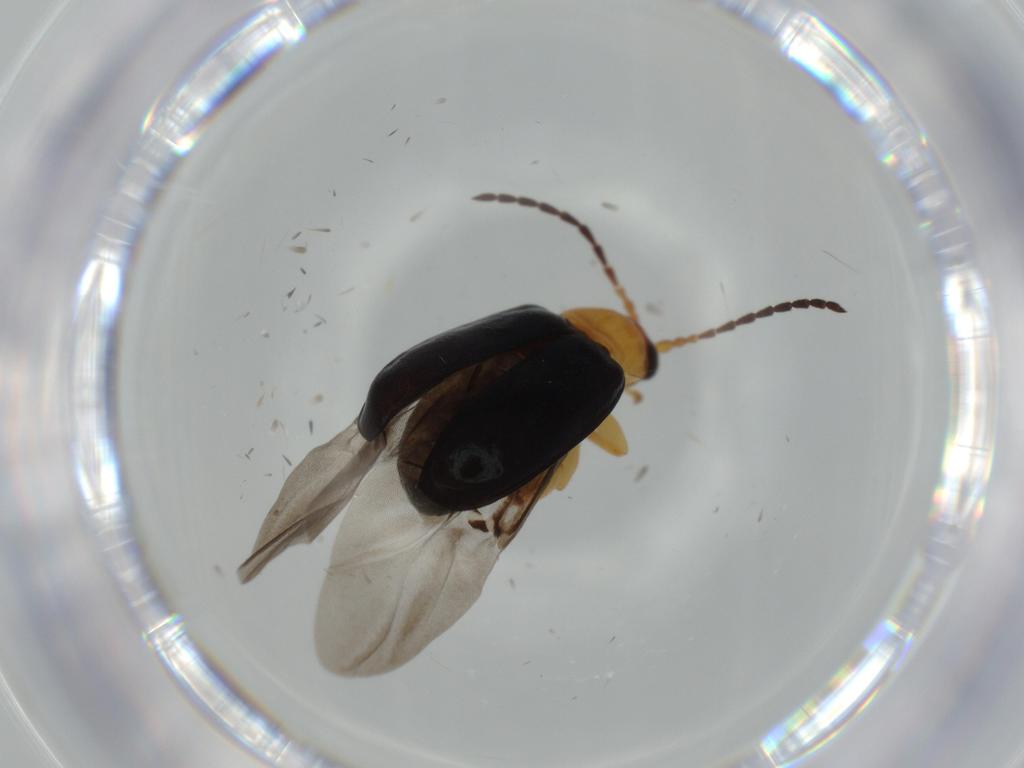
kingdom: Animalia
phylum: Arthropoda
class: Insecta
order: Coleoptera
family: Chrysomelidae
